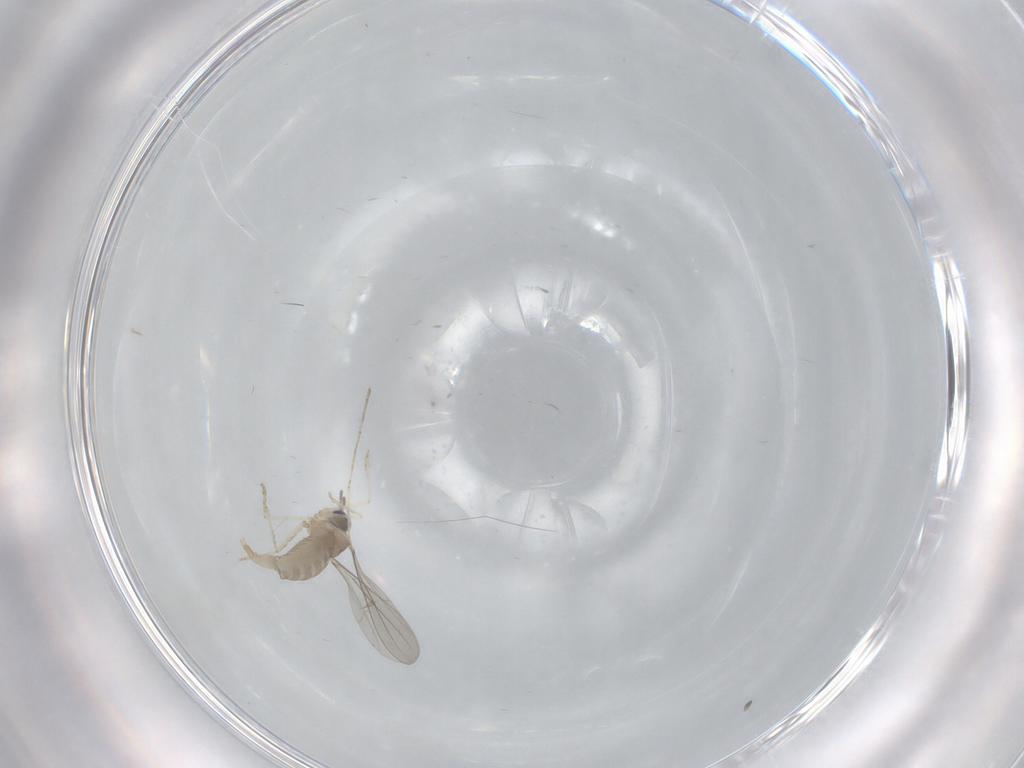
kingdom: Animalia
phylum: Arthropoda
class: Insecta
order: Diptera
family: Cecidomyiidae
